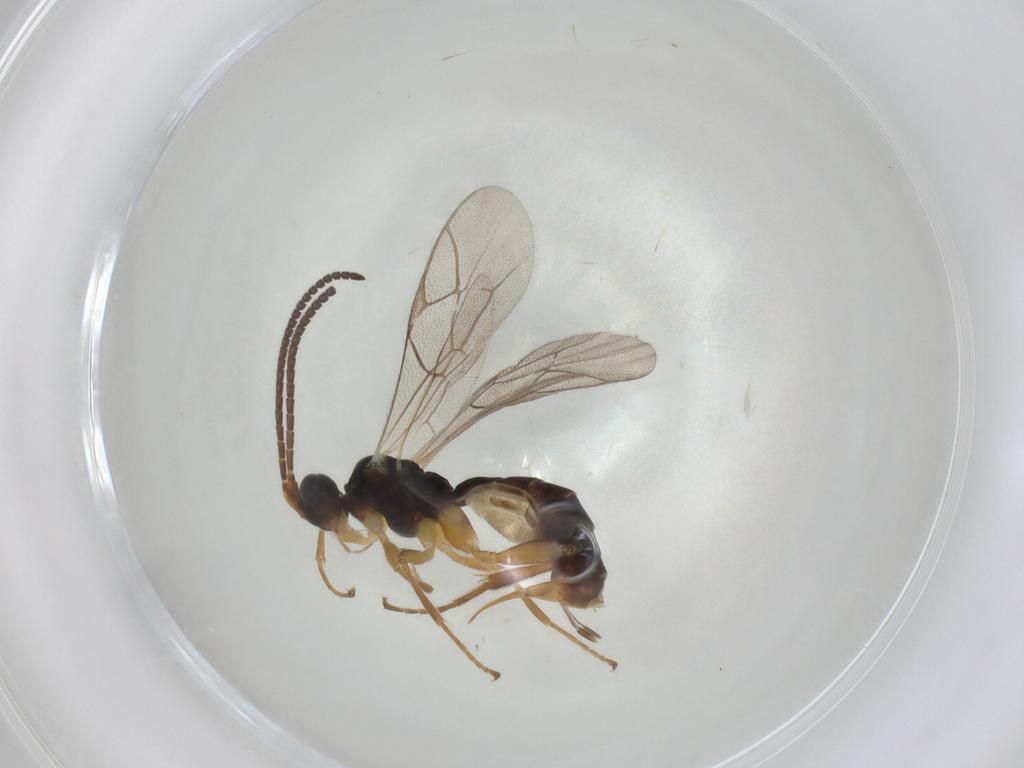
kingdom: Animalia
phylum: Arthropoda
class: Insecta
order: Hymenoptera
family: Ichneumonidae
